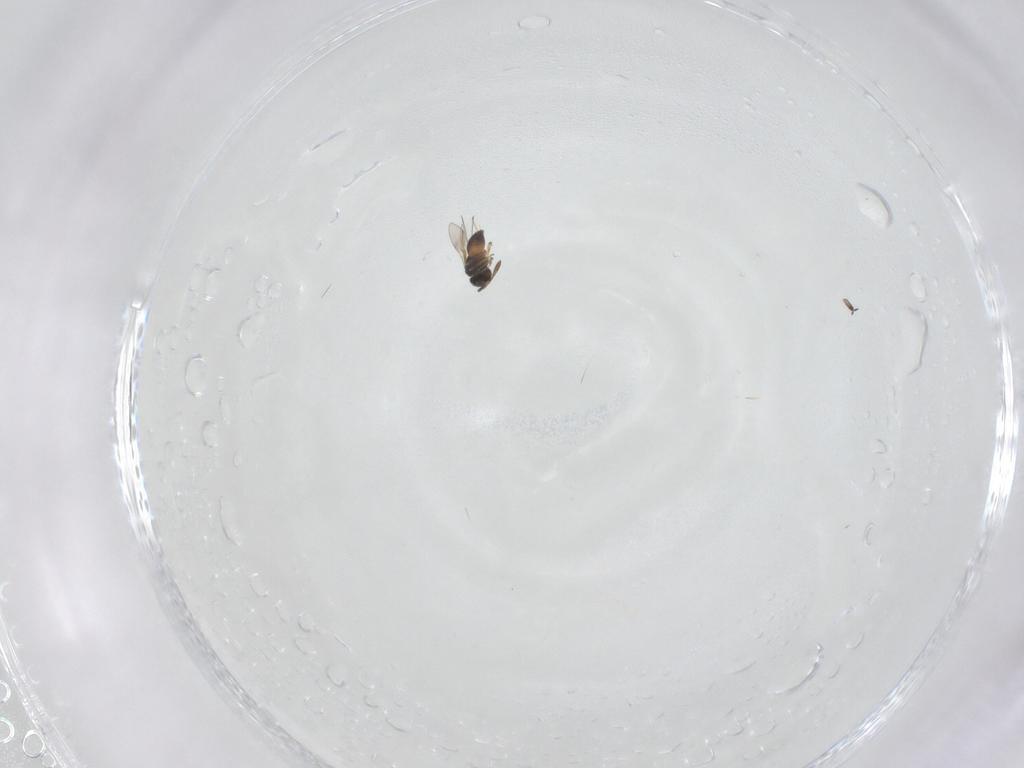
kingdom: Animalia
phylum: Arthropoda
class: Insecta
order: Hymenoptera
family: Scelionidae
